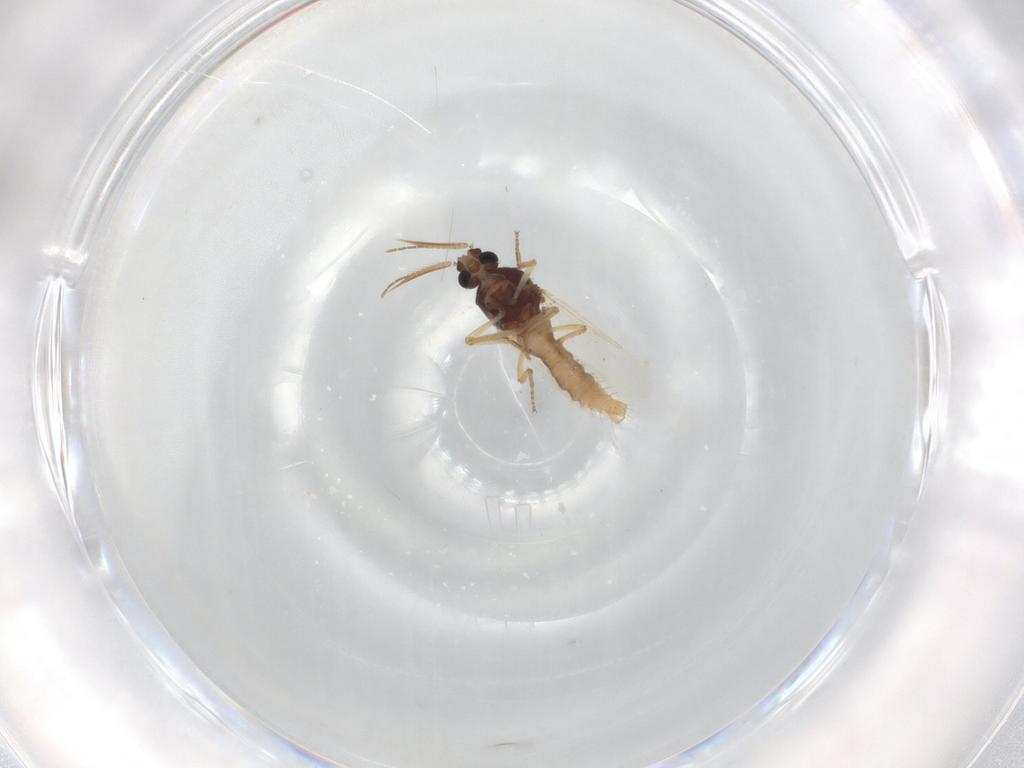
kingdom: Animalia
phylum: Arthropoda
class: Insecta
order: Diptera
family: Ceratopogonidae
